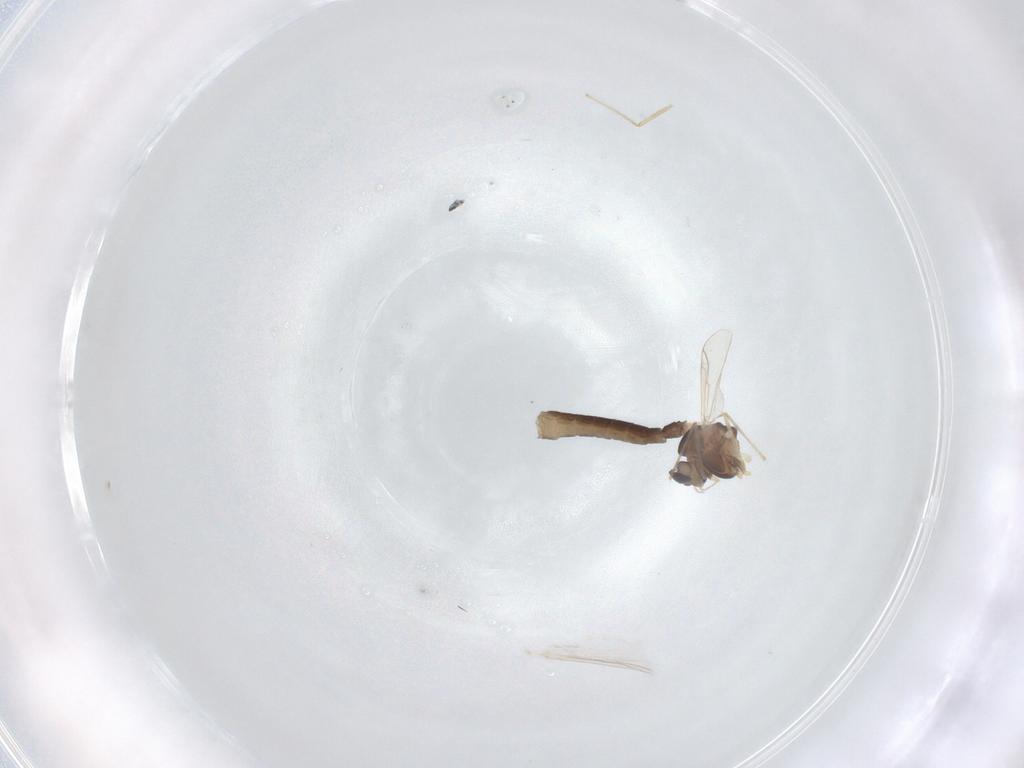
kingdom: Animalia
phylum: Arthropoda
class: Insecta
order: Diptera
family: Chironomidae
